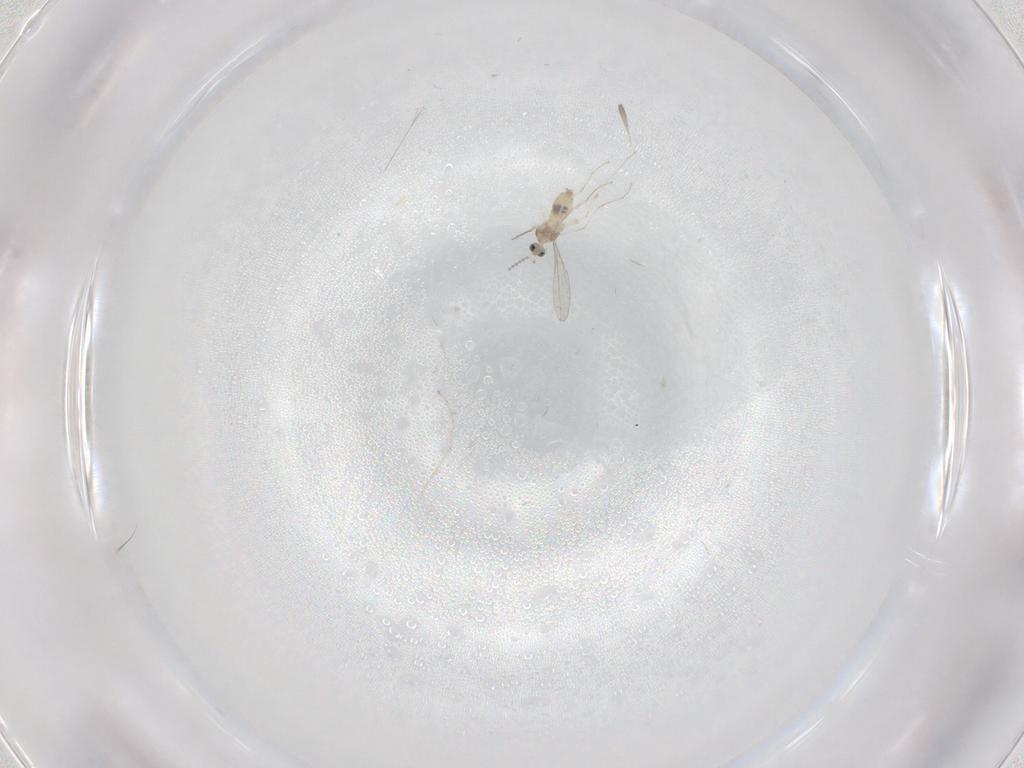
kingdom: Animalia
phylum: Arthropoda
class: Insecta
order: Diptera
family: Cecidomyiidae
